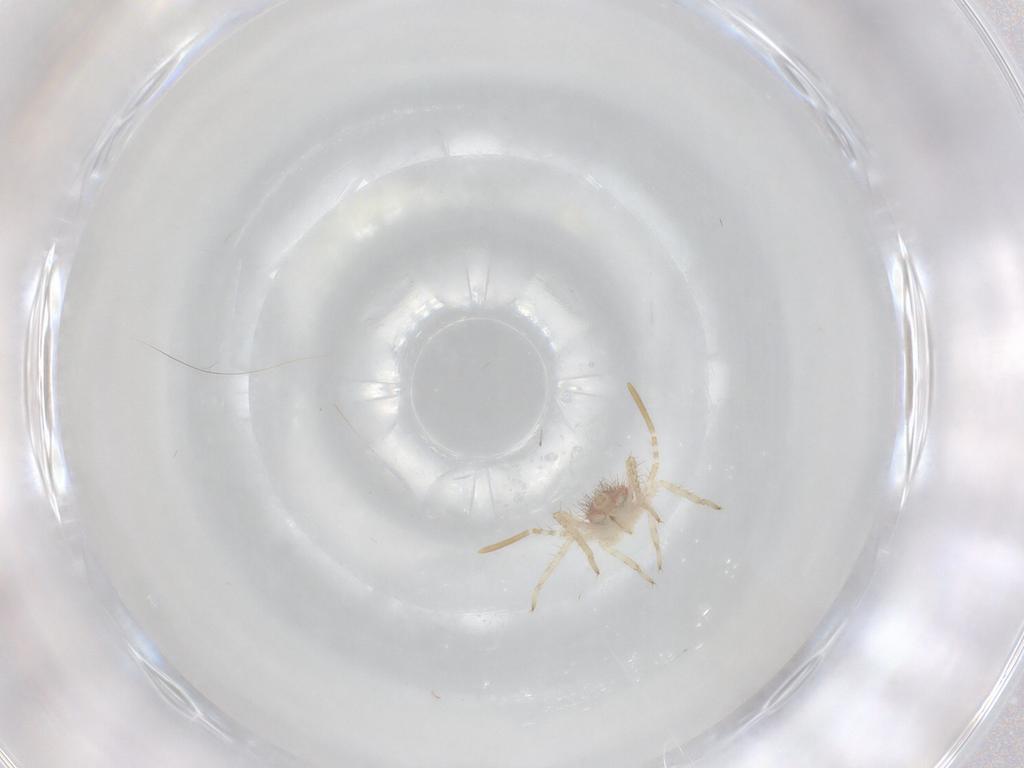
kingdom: Animalia
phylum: Arthropoda
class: Insecta
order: Hemiptera
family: Miridae
